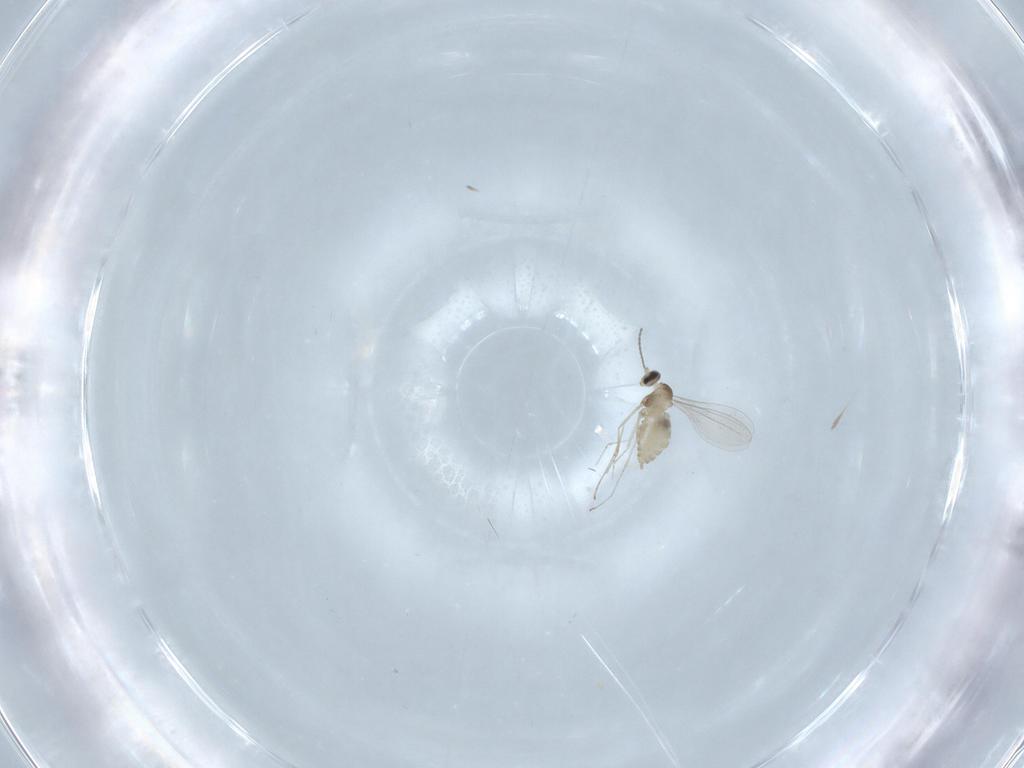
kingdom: Animalia
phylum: Arthropoda
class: Insecta
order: Diptera
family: Cecidomyiidae
